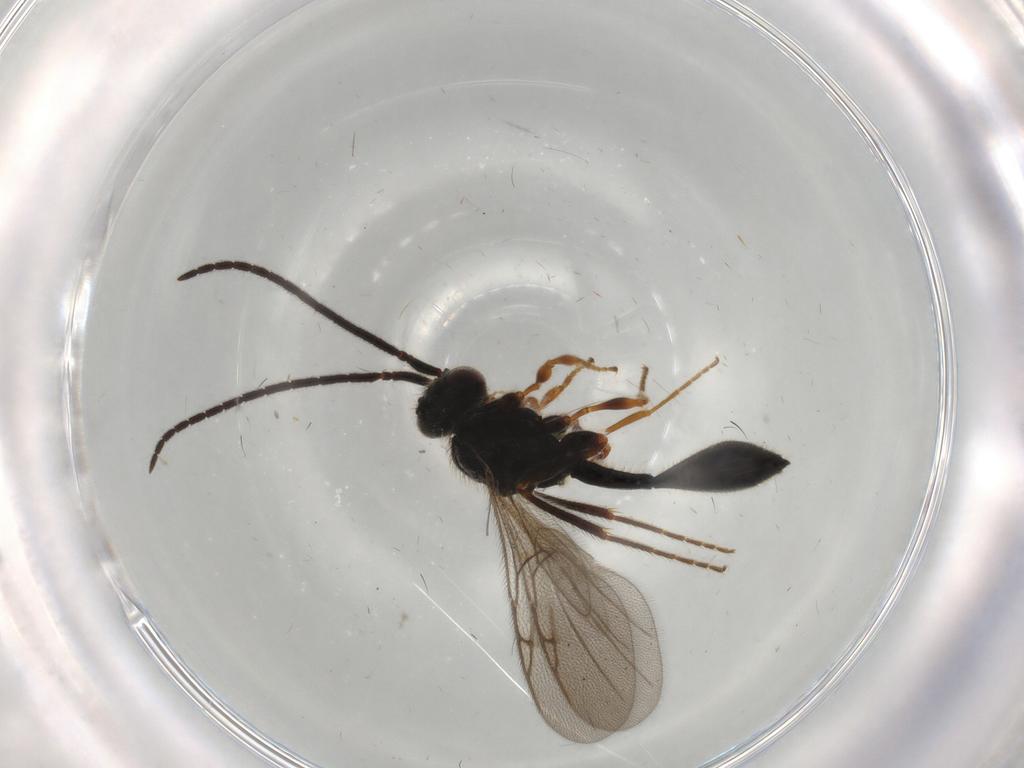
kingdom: Animalia
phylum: Arthropoda
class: Insecta
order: Hymenoptera
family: Diapriidae
